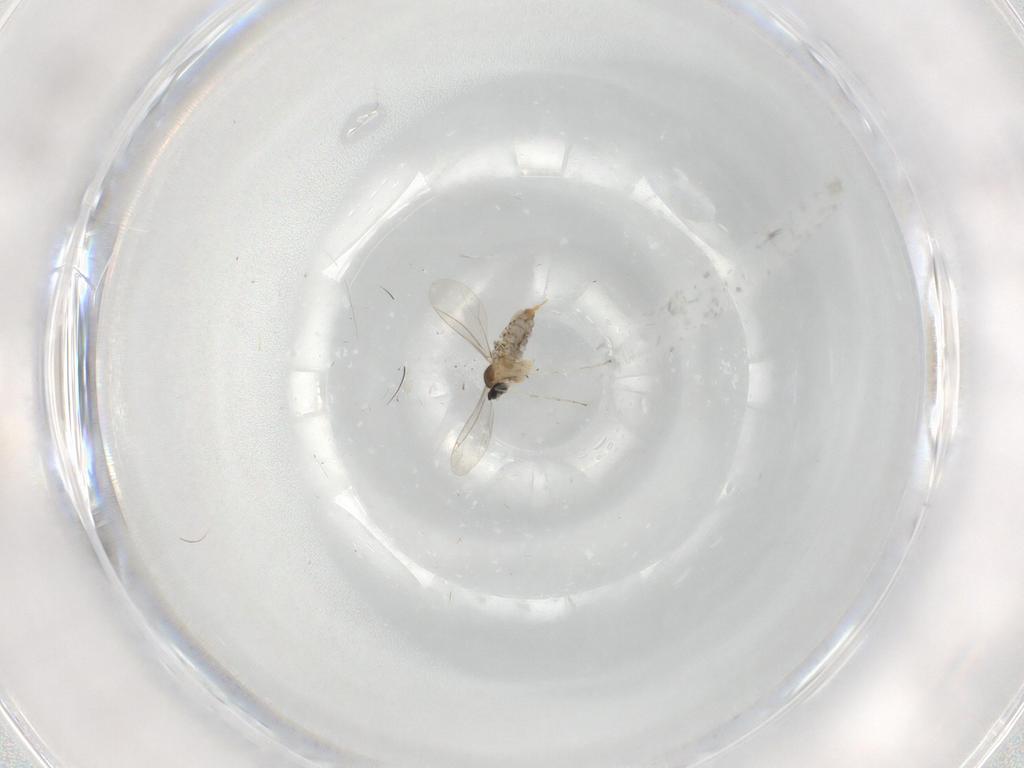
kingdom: Animalia
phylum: Arthropoda
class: Insecta
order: Diptera
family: Cecidomyiidae
